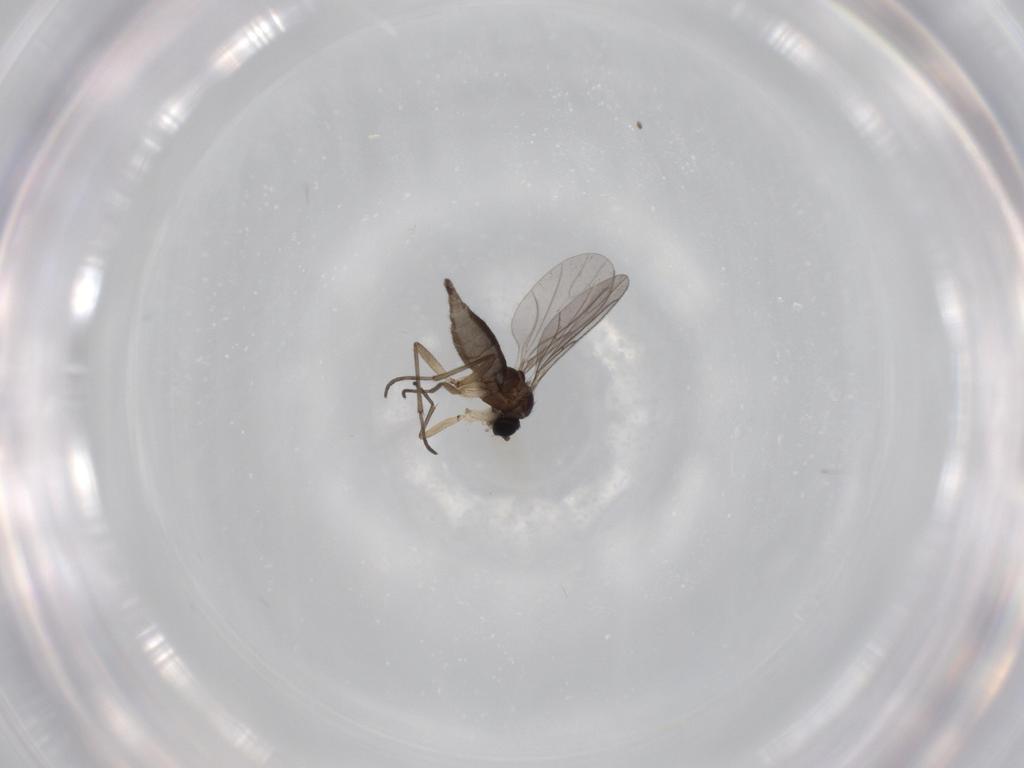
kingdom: Animalia
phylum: Arthropoda
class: Insecta
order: Diptera
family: Sciaridae
